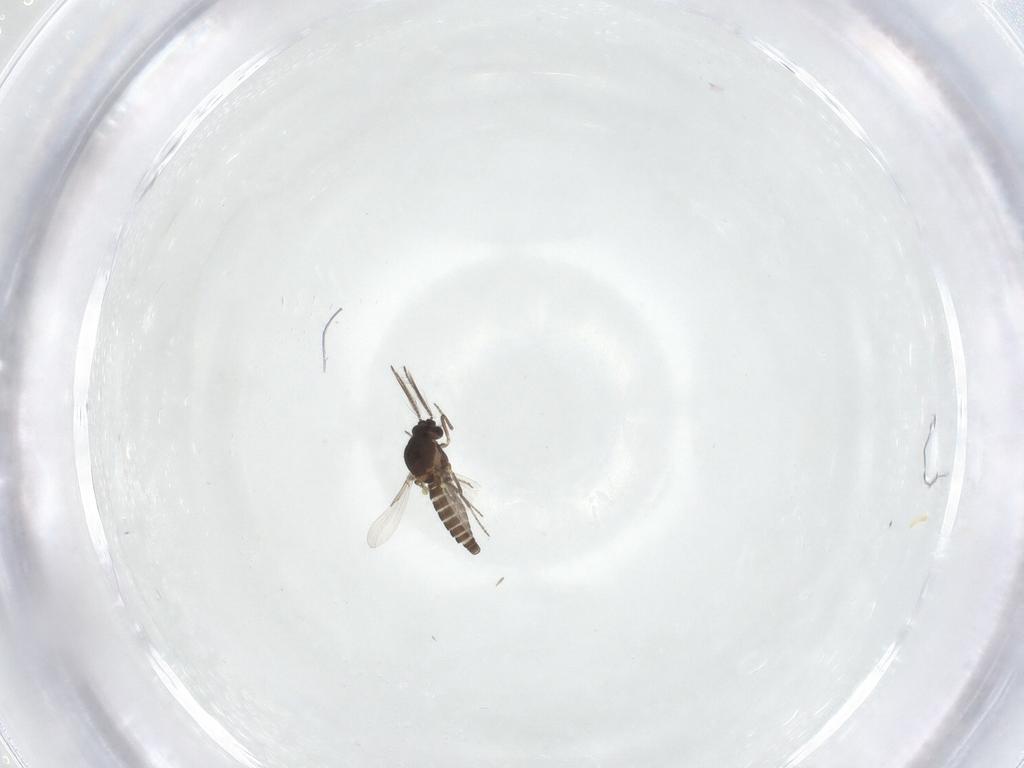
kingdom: Animalia
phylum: Arthropoda
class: Insecta
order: Diptera
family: Ceratopogonidae
